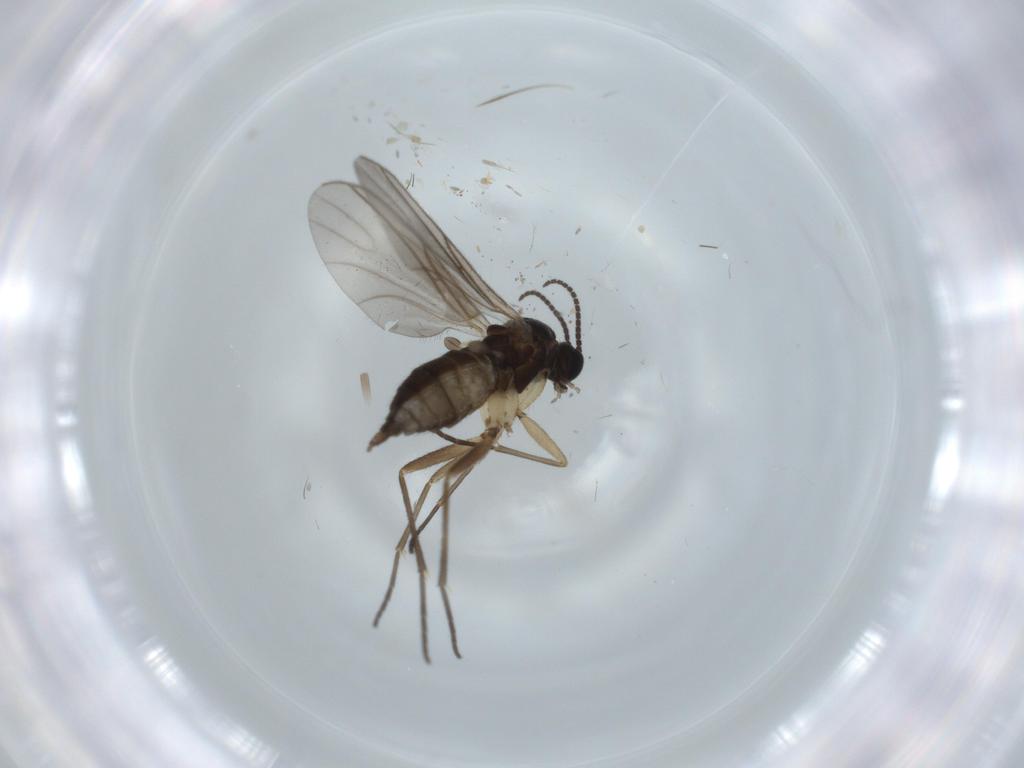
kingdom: Animalia
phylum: Arthropoda
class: Insecta
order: Diptera
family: Sciaridae
